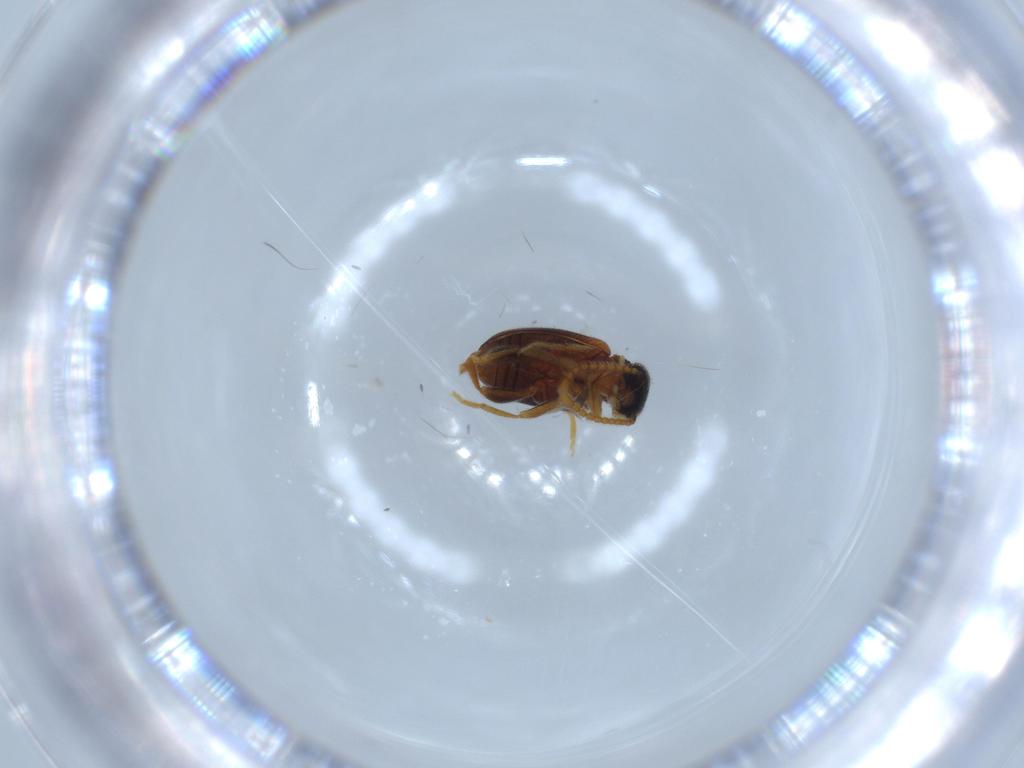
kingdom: Animalia
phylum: Arthropoda
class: Insecta
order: Coleoptera
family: Aderidae
